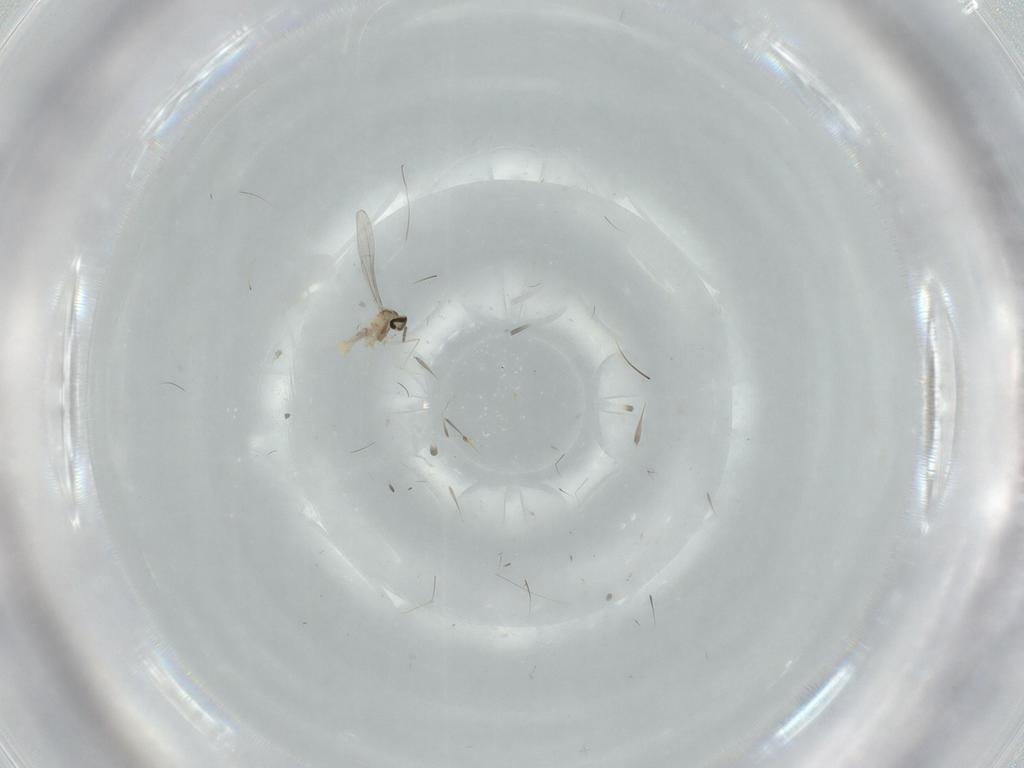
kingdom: Animalia
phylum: Arthropoda
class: Insecta
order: Diptera
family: Cecidomyiidae
